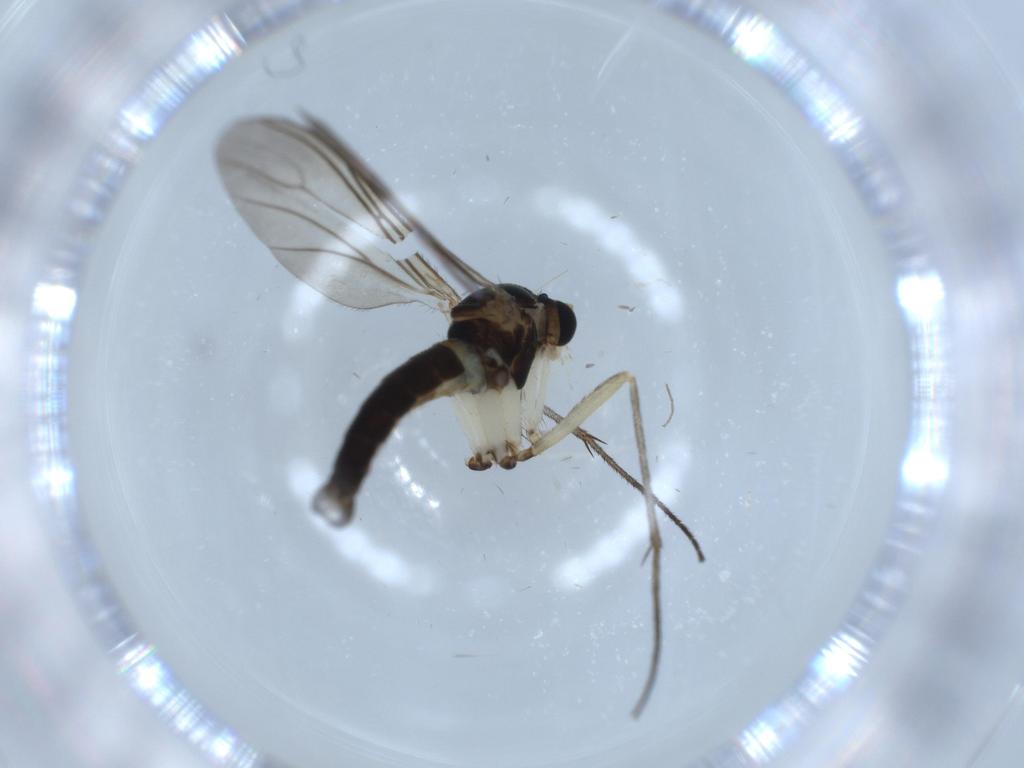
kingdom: Animalia
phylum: Arthropoda
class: Insecta
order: Diptera
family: Sciaridae
